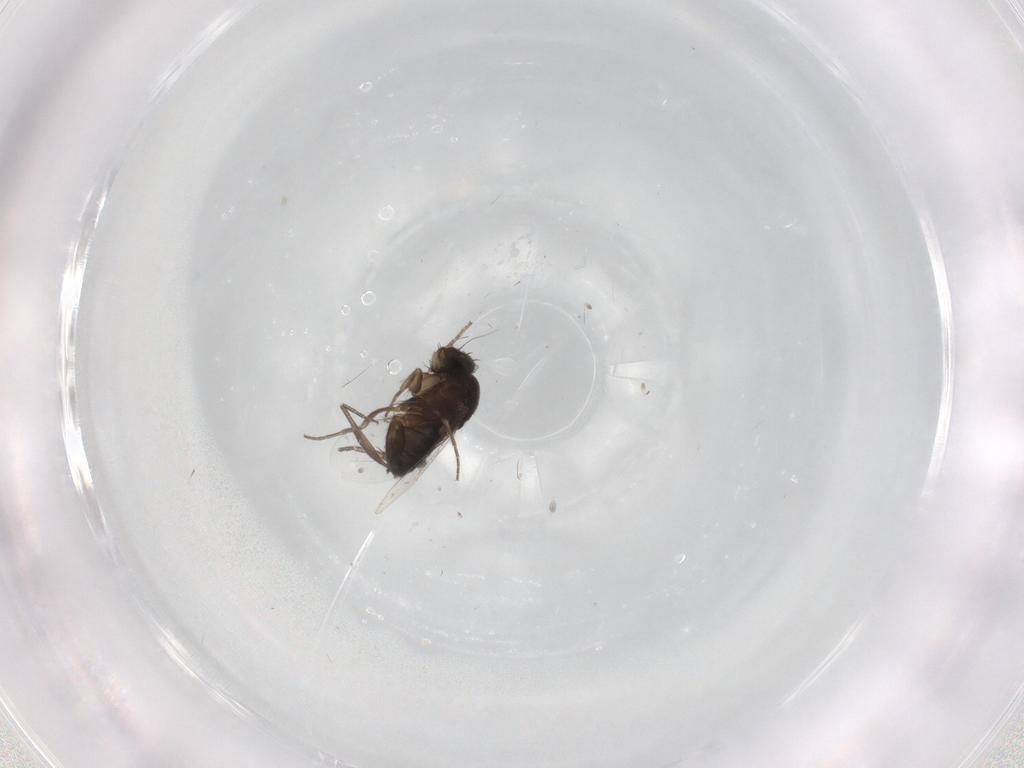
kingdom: Animalia
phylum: Arthropoda
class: Insecta
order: Diptera
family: Phoridae
